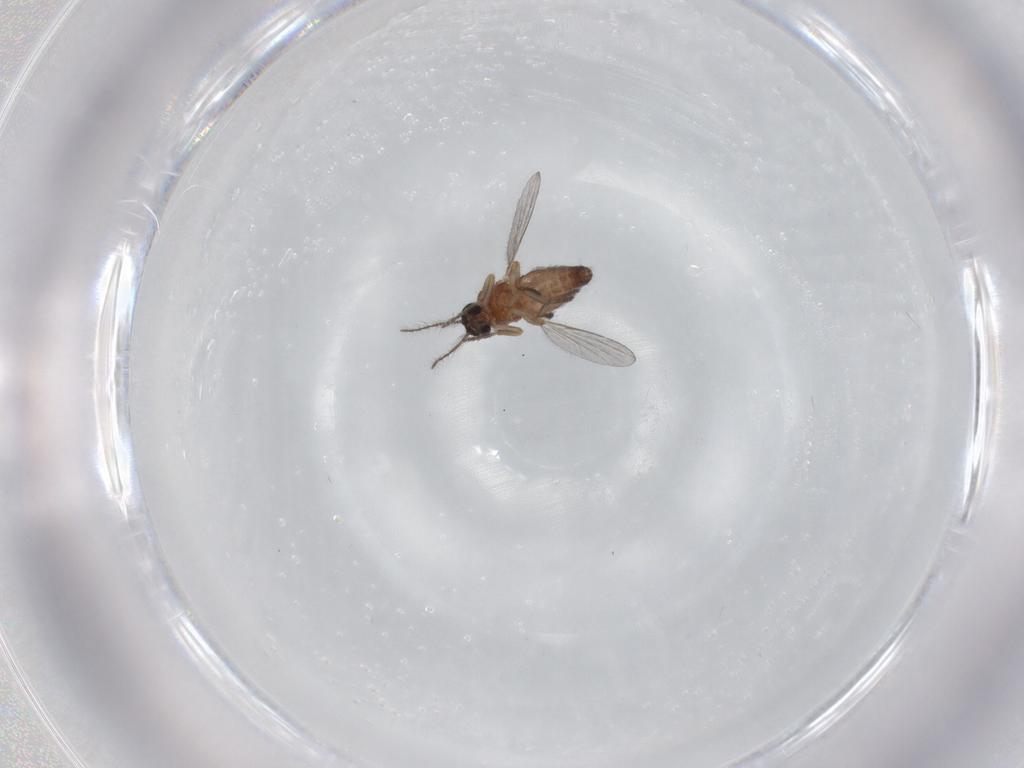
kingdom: Animalia
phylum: Arthropoda
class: Insecta
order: Diptera
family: Ceratopogonidae
